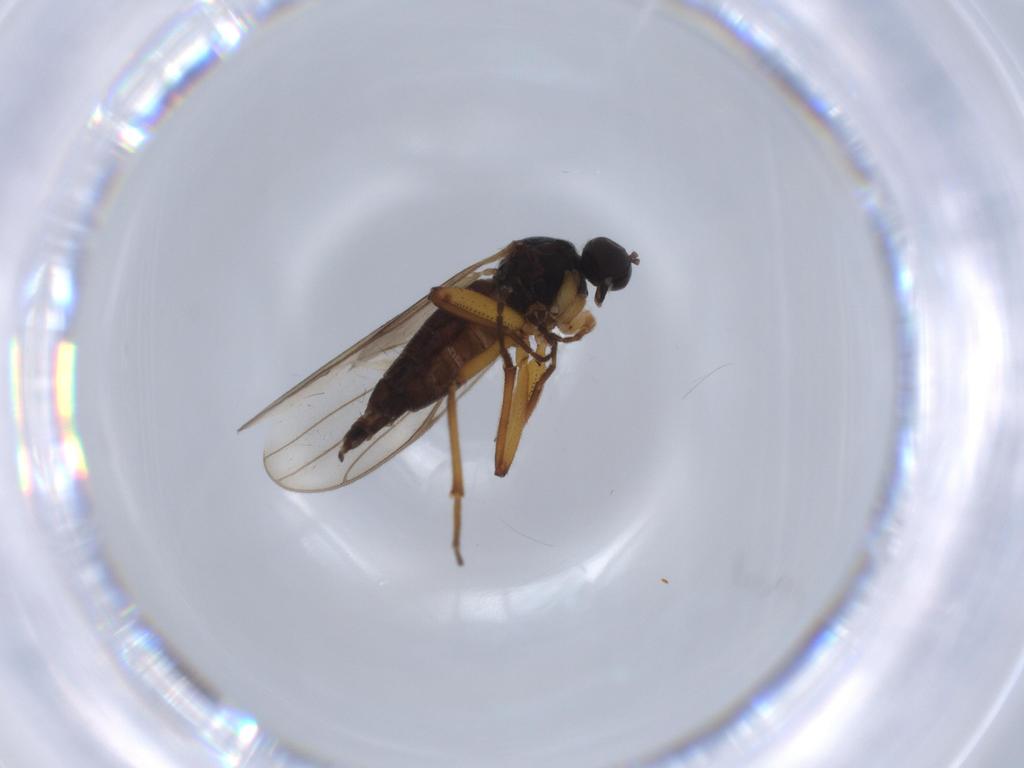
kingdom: Animalia
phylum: Arthropoda
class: Insecta
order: Diptera
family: Hybotidae
